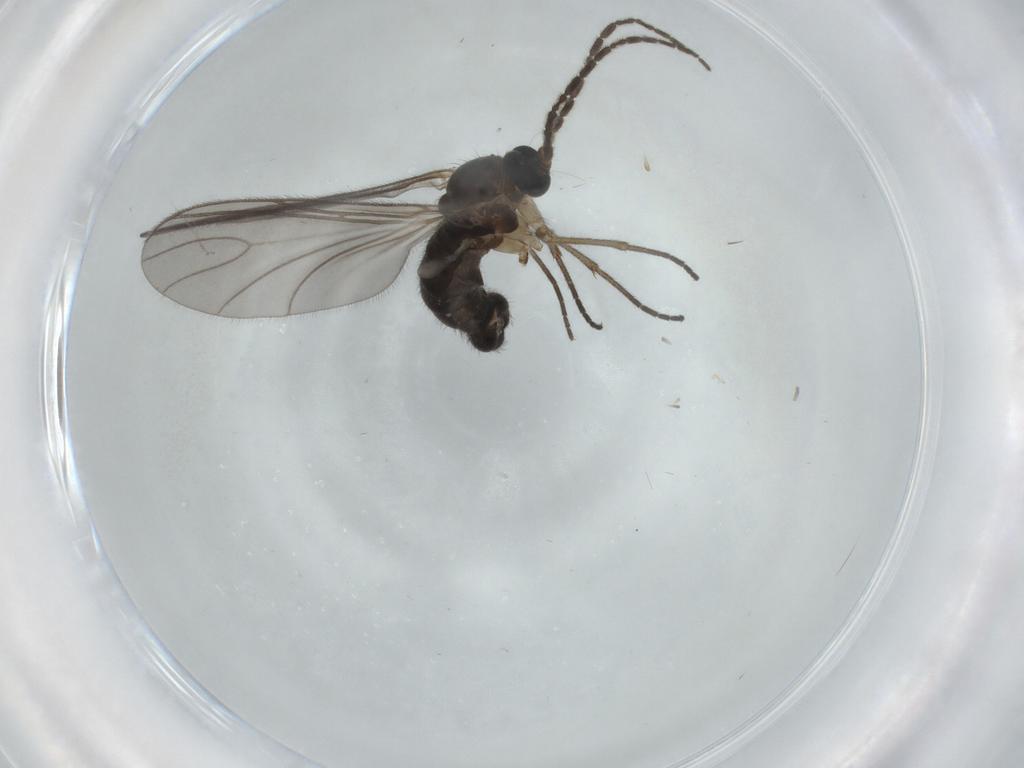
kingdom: Animalia
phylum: Arthropoda
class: Insecta
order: Diptera
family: Sciaridae
